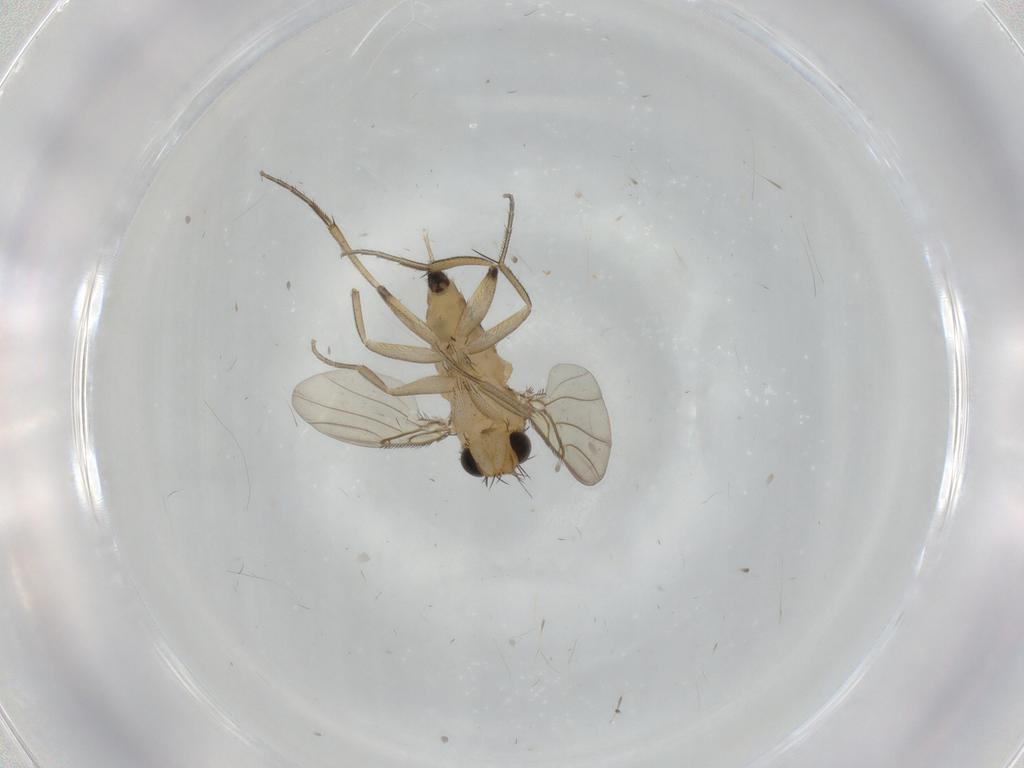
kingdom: Animalia
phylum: Arthropoda
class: Insecta
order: Diptera
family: Phoridae
